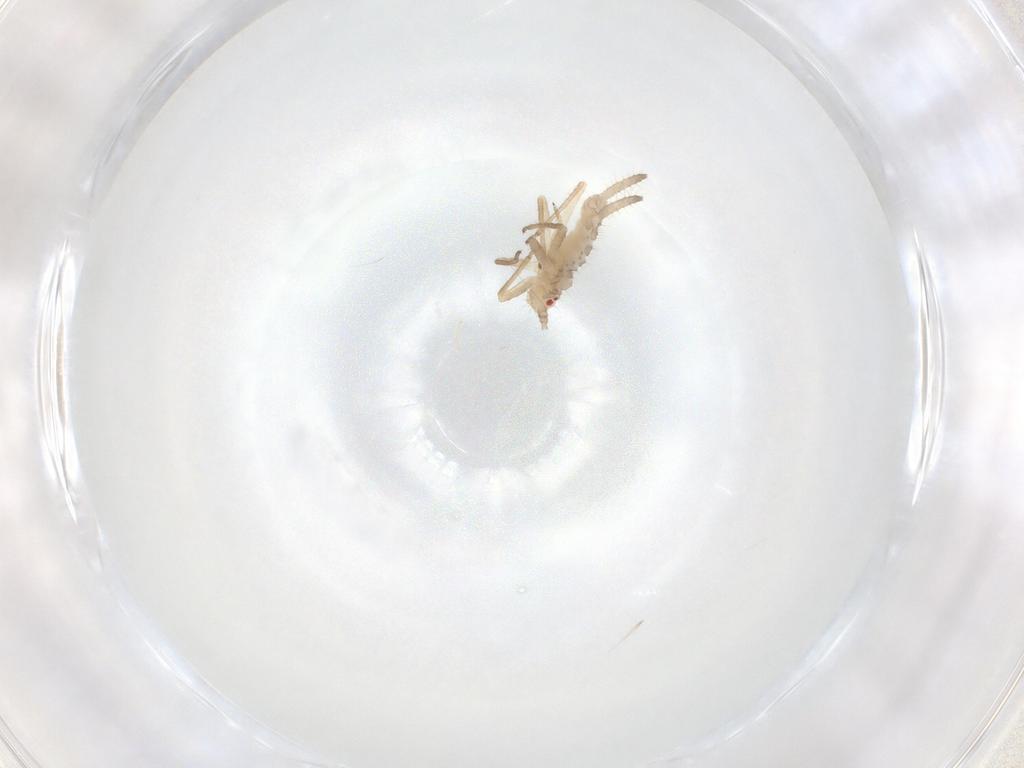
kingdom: Animalia
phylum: Arthropoda
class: Insecta
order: Hemiptera
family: Aphididae
